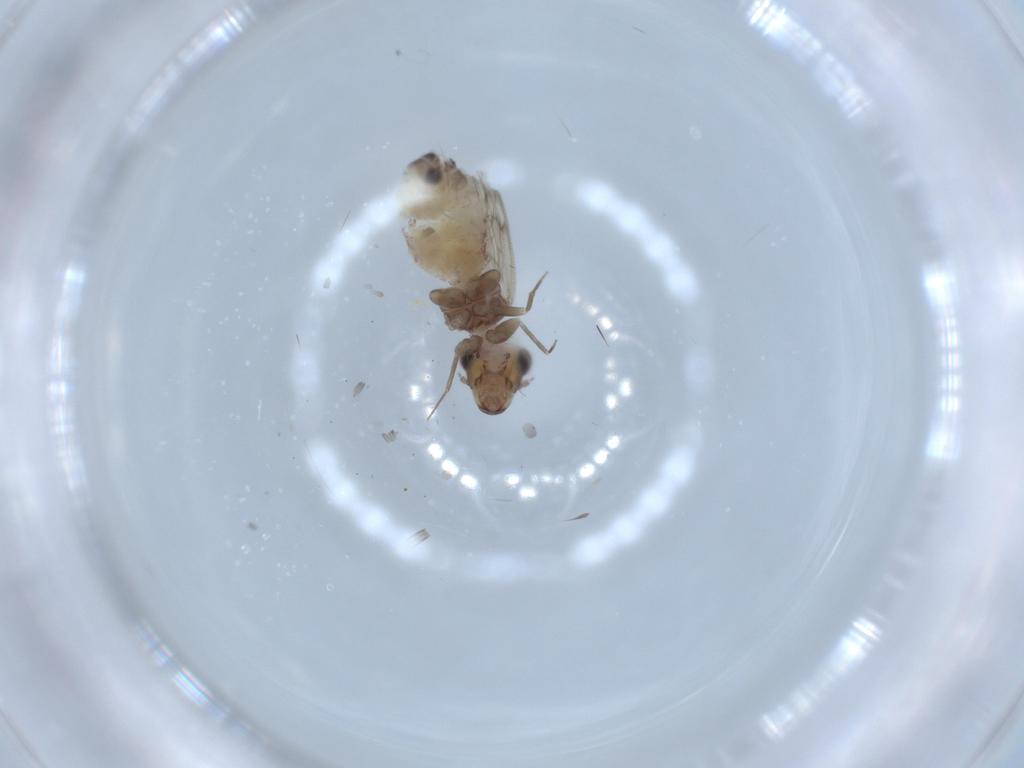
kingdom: Animalia
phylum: Arthropoda
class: Insecta
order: Psocodea
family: Lepidopsocidae
